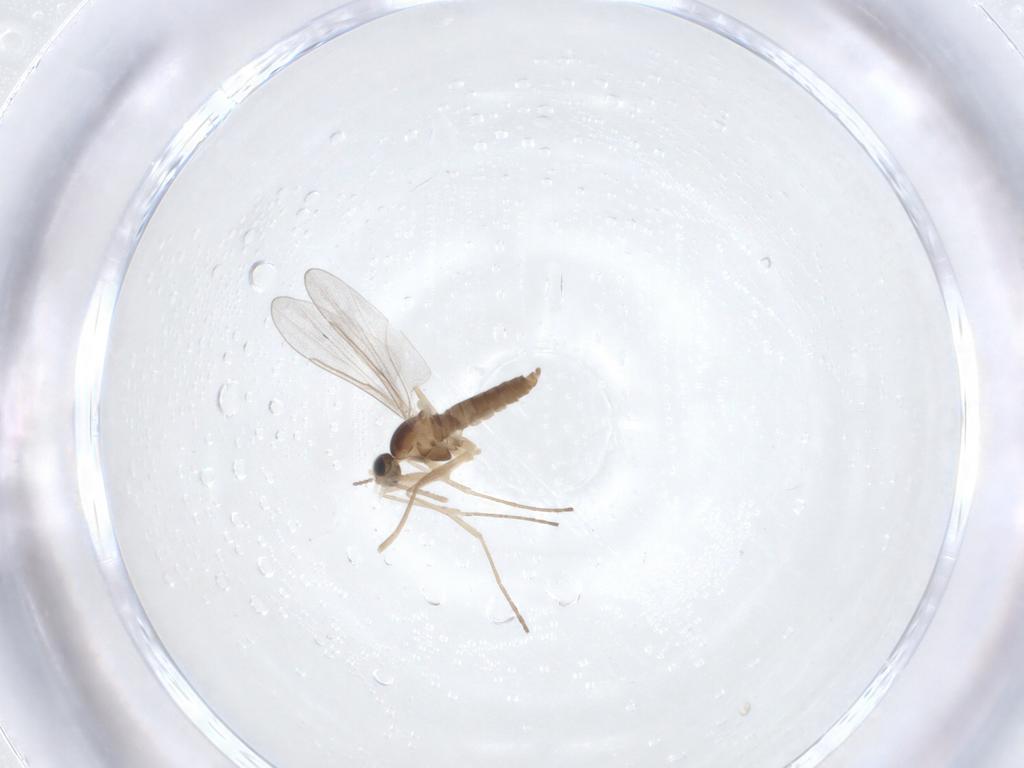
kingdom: Animalia
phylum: Arthropoda
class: Insecta
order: Diptera
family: Cecidomyiidae
